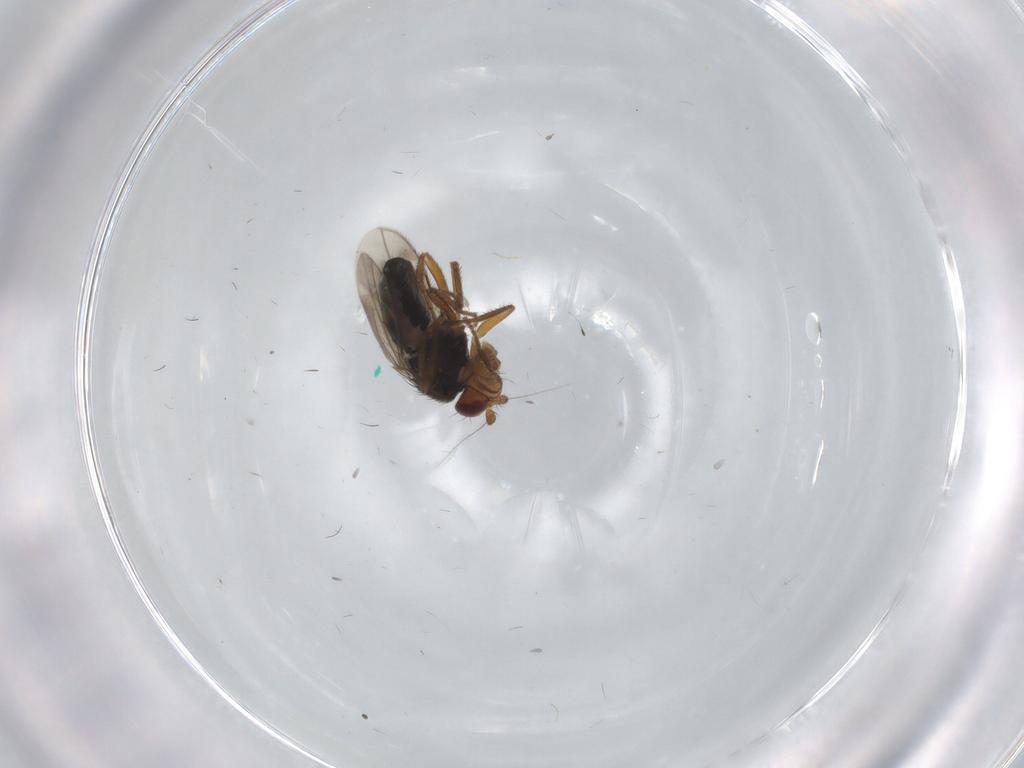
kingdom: Animalia
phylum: Arthropoda
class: Insecta
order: Diptera
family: Sphaeroceridae
